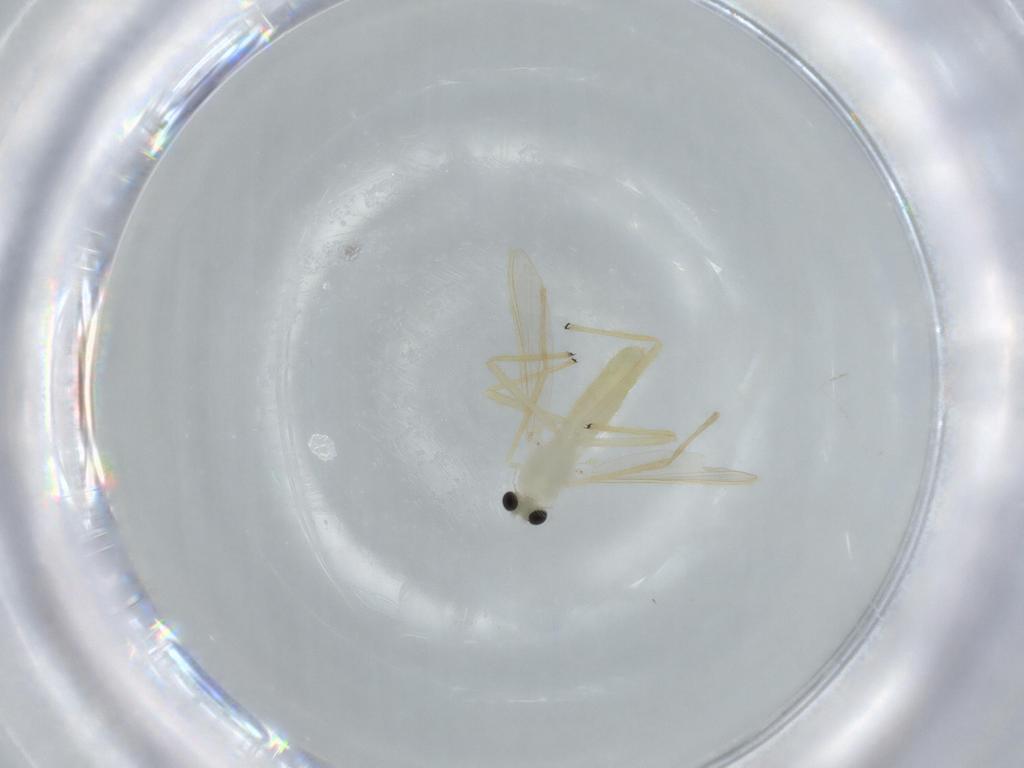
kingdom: Animalia
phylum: Arthropoda
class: Insecta
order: Diptera
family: Chironomidae
